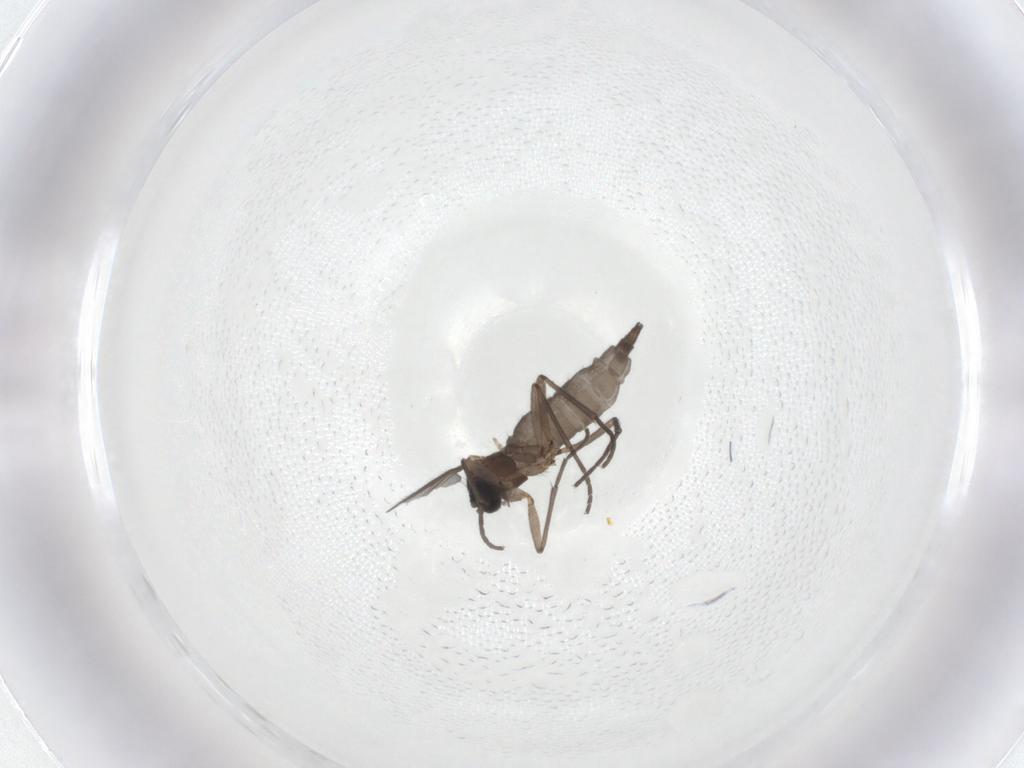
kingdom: Animalia
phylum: Arthropoda
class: Insecta
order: Diptera
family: Sciaridae
